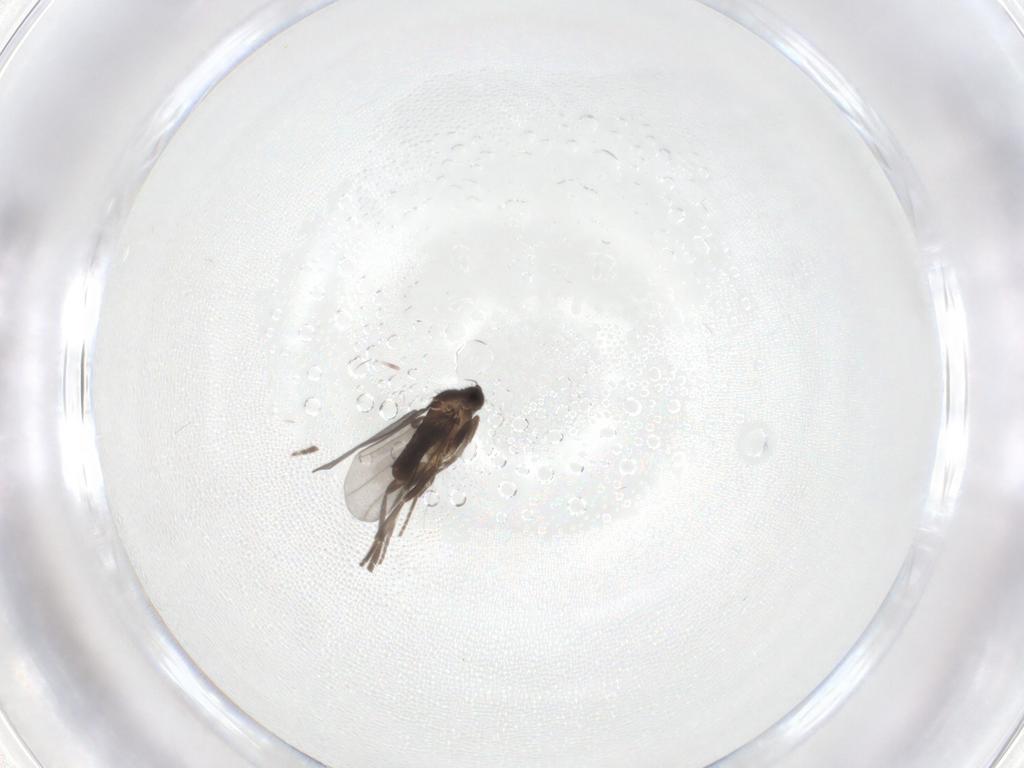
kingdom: Animalia
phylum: Arthropoda
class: Insecta
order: Diptera
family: Phoridae
